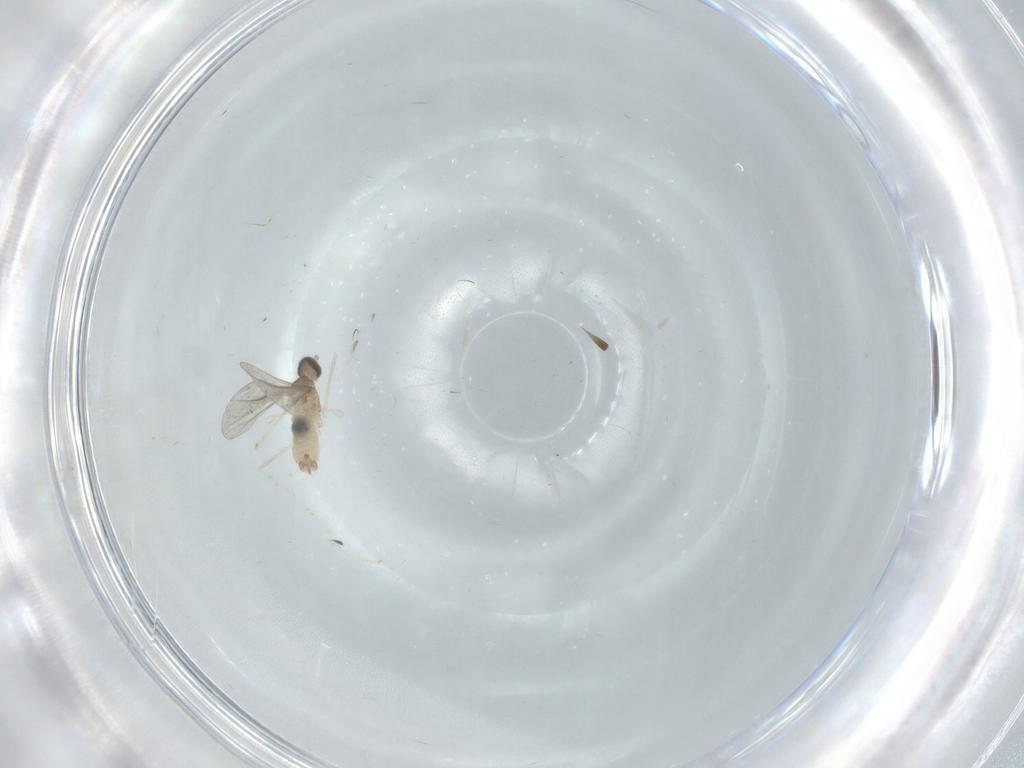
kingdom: Animalia
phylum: Arthropoda
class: Insecta
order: Diptera
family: Cecidomyiidae
